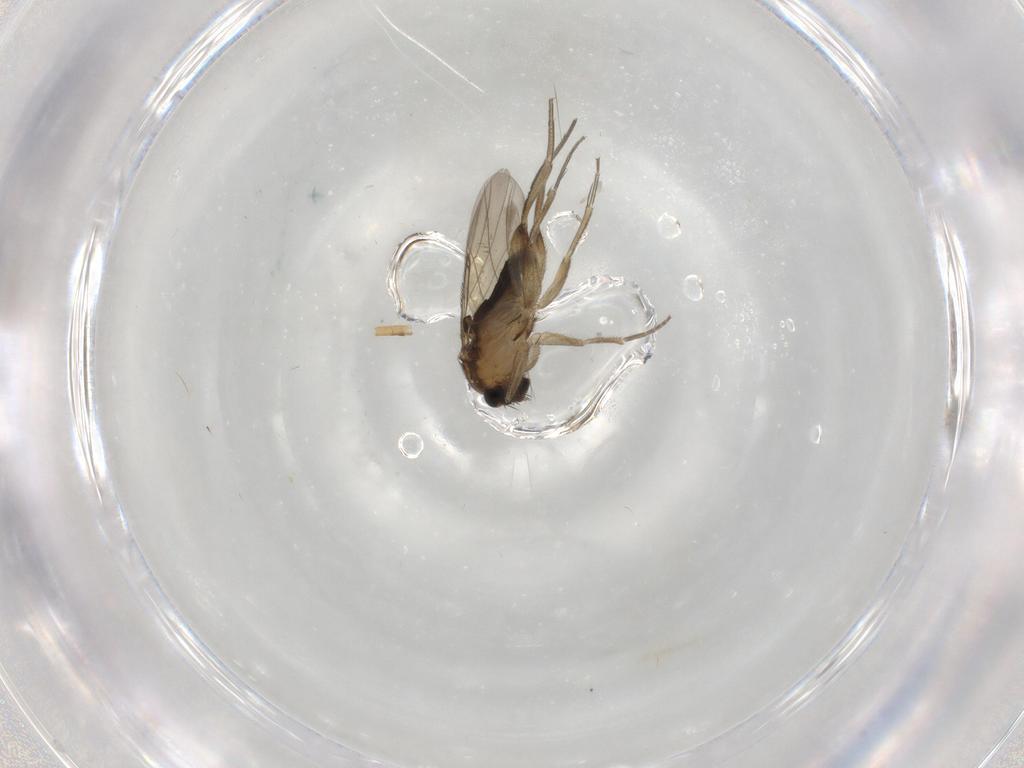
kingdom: Animalia
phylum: Arthropoda
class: Insecta
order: Diptera
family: Phoridae
